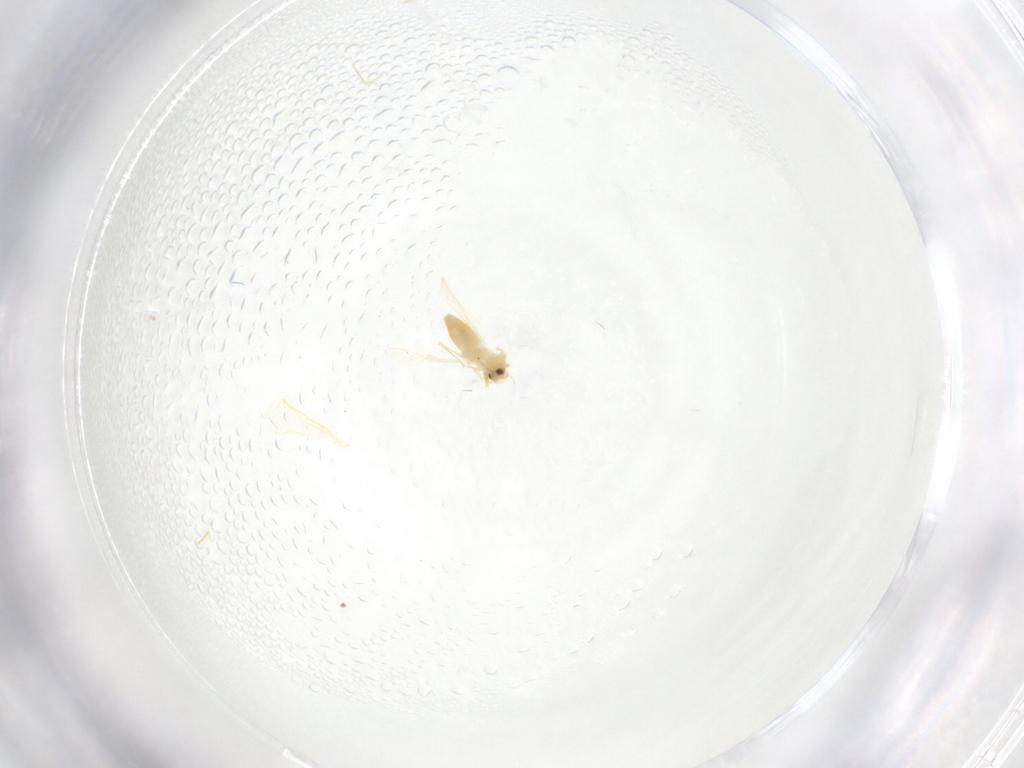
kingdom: Animalia
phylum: Arthropoda
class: Insecta
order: Hemiptera
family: Aleyrodidae
